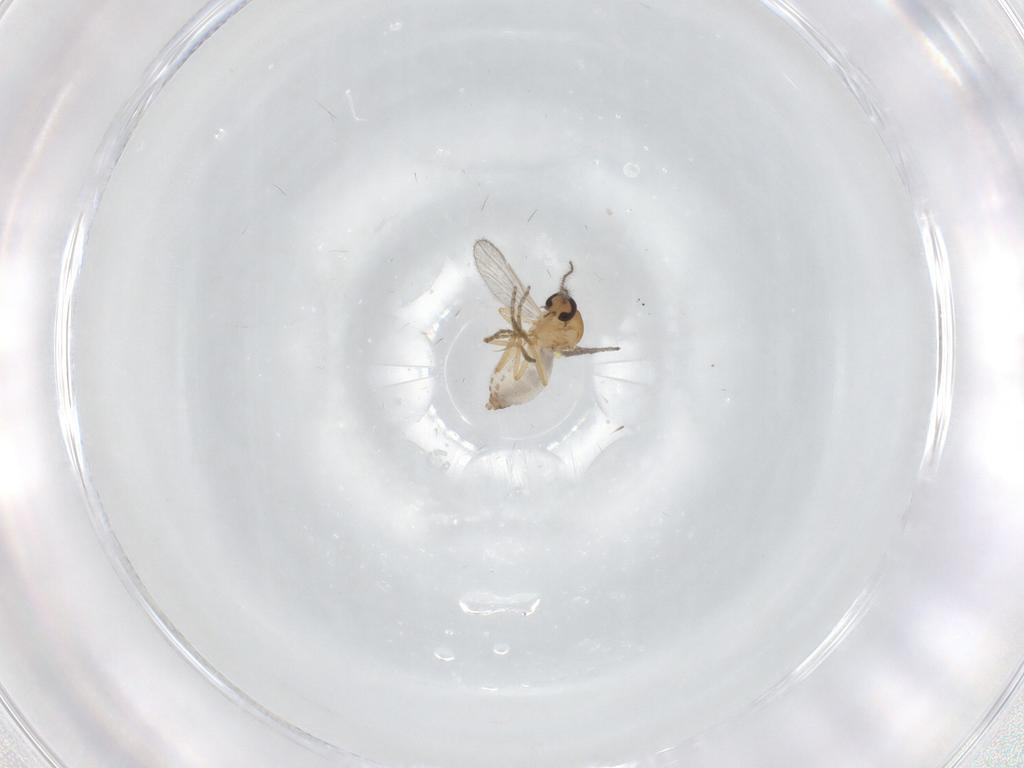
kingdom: Animalia
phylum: Arthropoda
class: Insecta
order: Diptera
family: Ceratopogonidae
